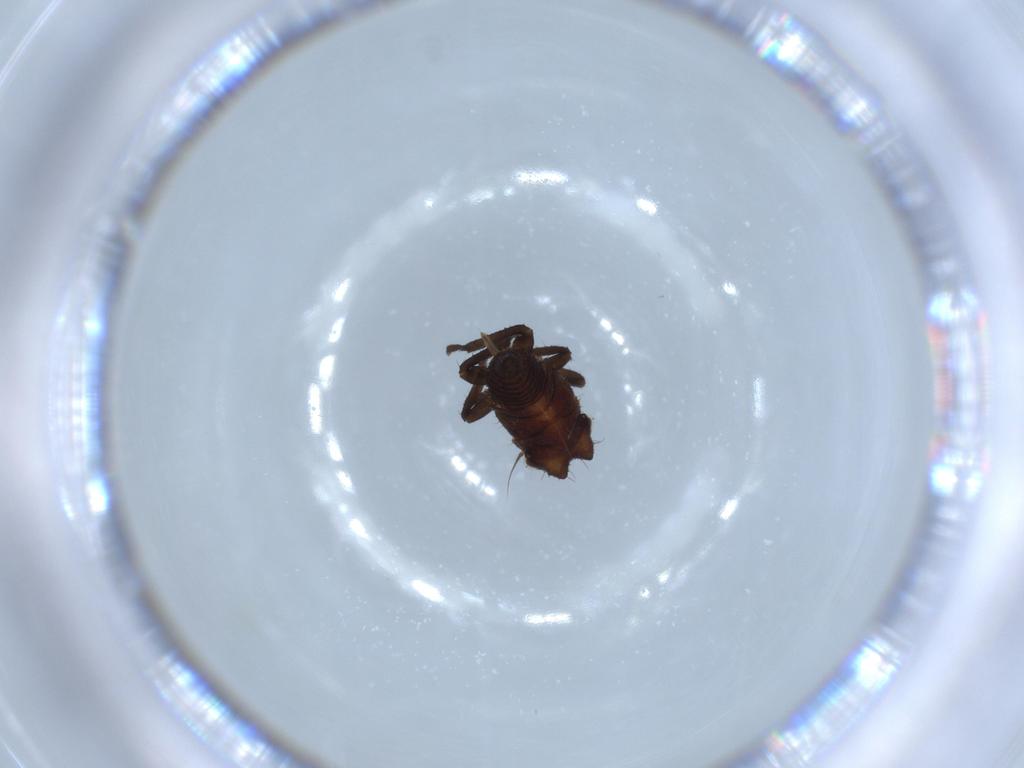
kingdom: Animalia
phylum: Arthropoda
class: Insecta
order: Hemiptera
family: Membracidae
